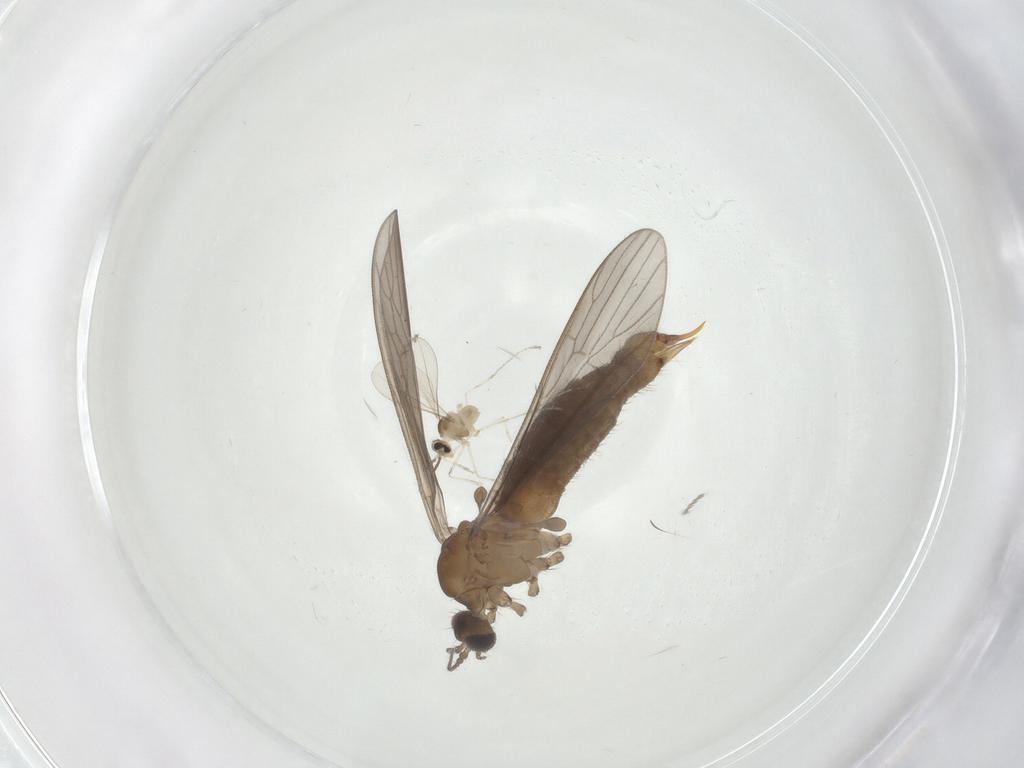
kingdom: Animalia
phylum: Arthropoda
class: Insecta
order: Diptera
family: Limoniidae
